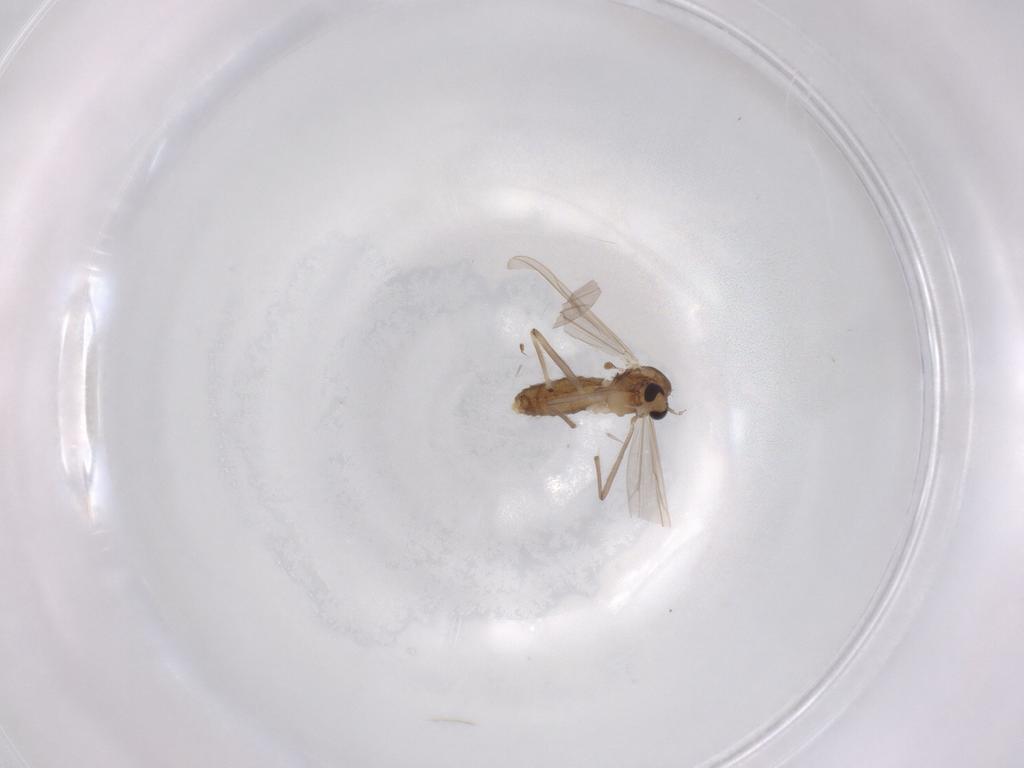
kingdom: Animalia
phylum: Arthropoda
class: Insecta
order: Diptera
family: Chironomidae
